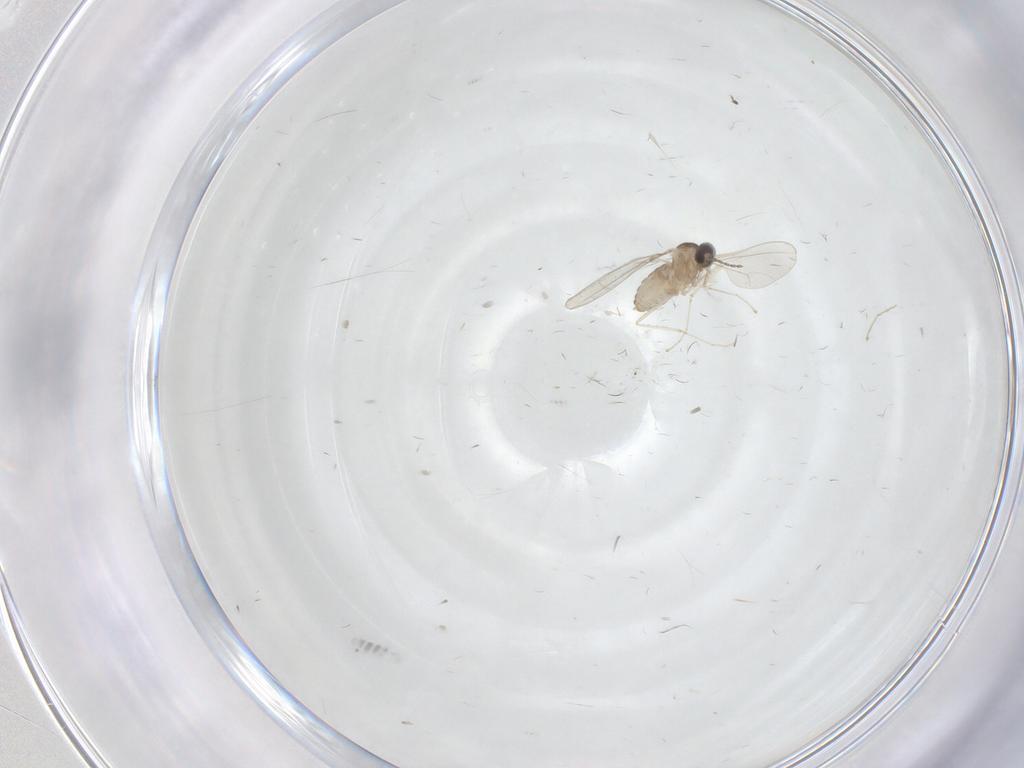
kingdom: Animalia
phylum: Arthropoda
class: Insecta
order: Diptera
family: Cecidomyiidae
